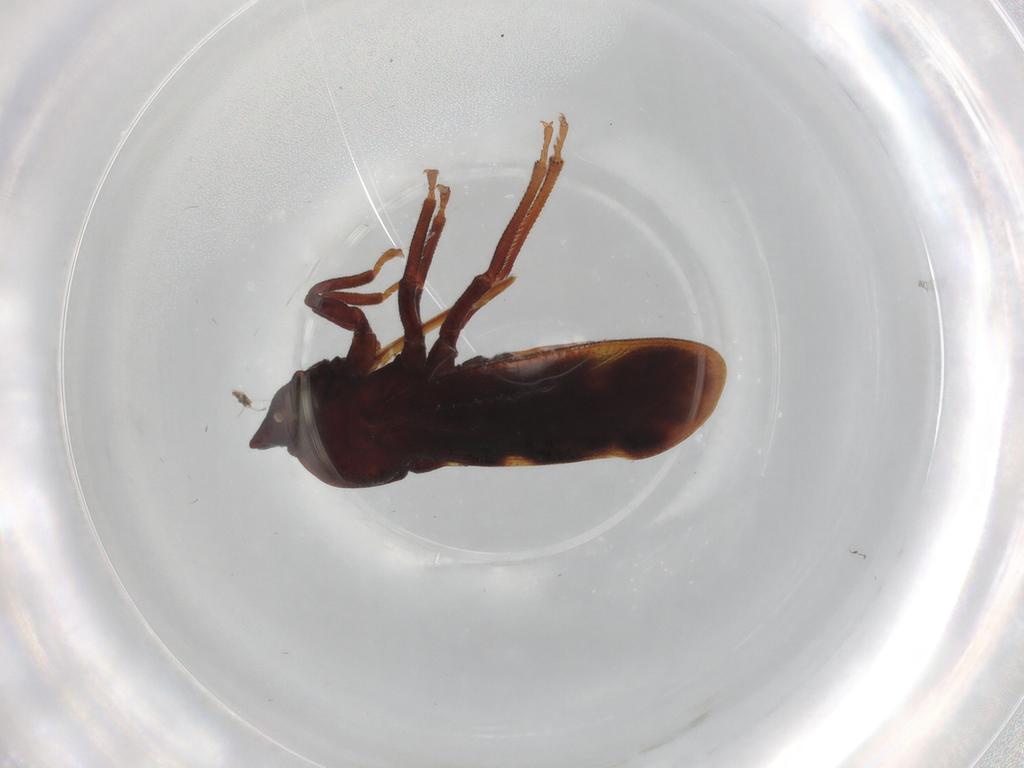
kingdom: Animalia
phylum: Arthropoda
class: Insecta
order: Hemiptera
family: Aetalionidae
